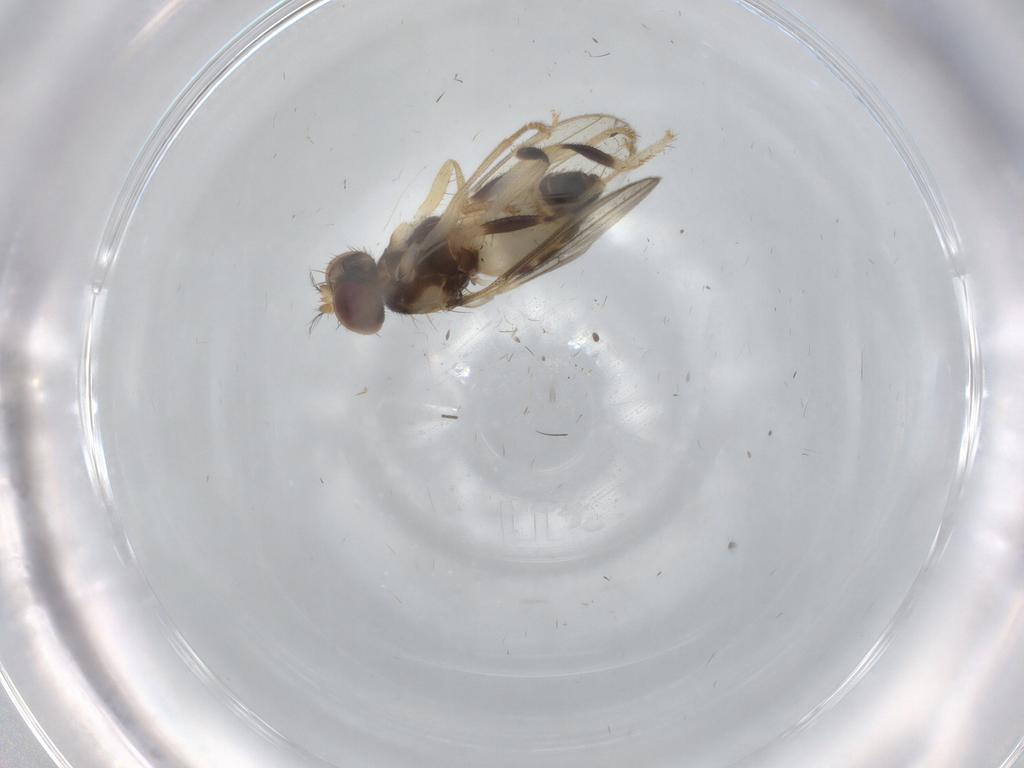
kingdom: Animalia
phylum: Arthropoda
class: Insecta
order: Diptera
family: Periscelididae
